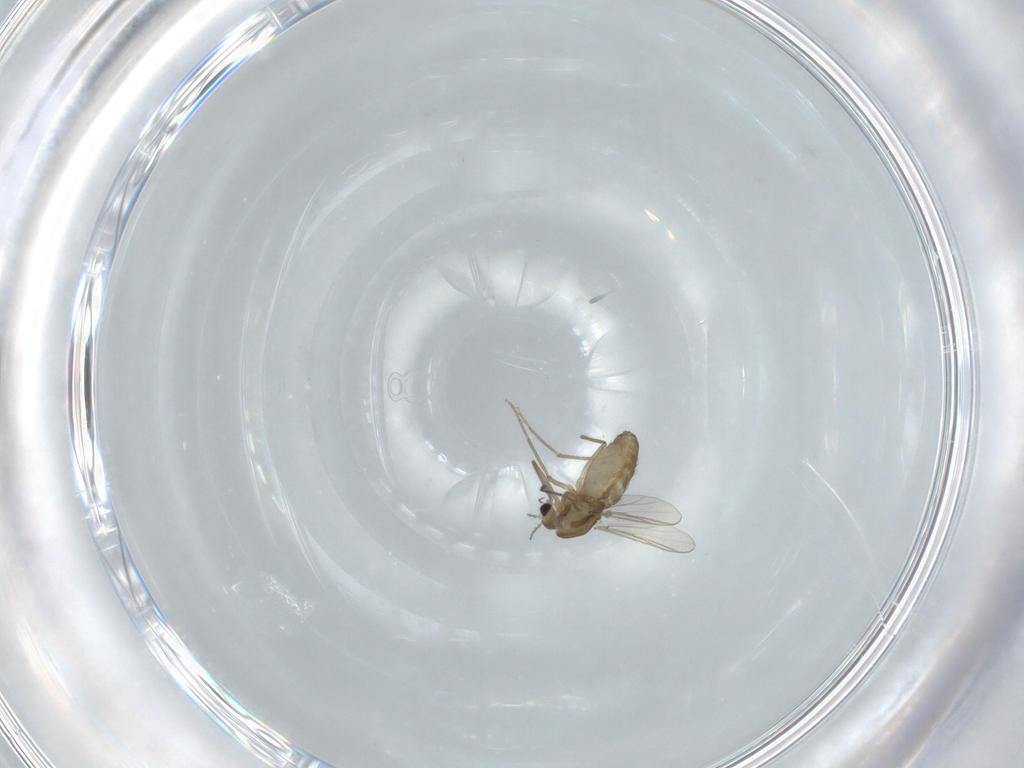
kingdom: Animalia
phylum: Arthropoda
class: Insecta
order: Diptera
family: Chironomidae
